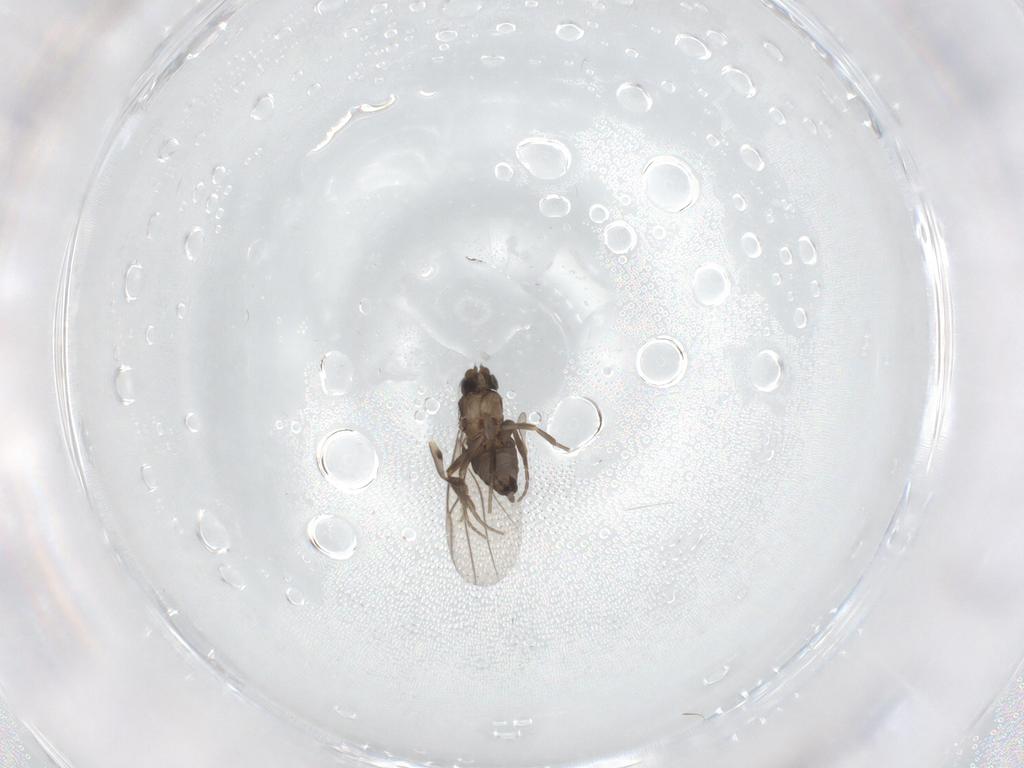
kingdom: Animalia
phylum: Arthropoda
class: Insecta
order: Diptera
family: Phoridae
